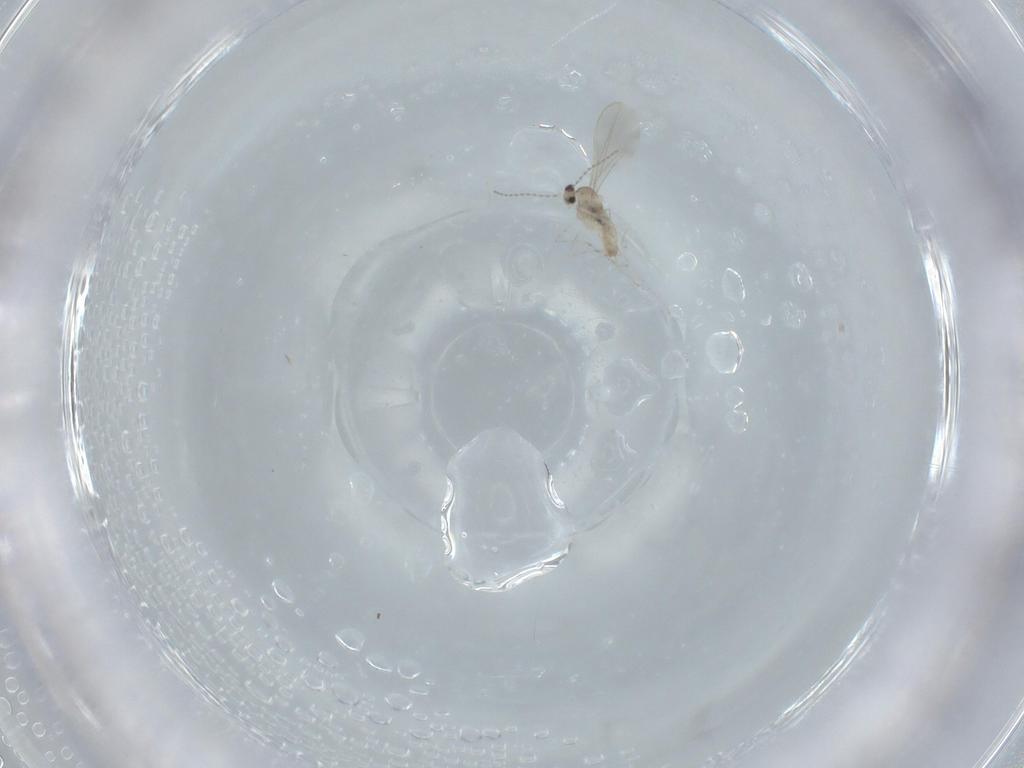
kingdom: Animalia
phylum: Arthropoda
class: Insecta
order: Diptera
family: Cecidomyiidae
